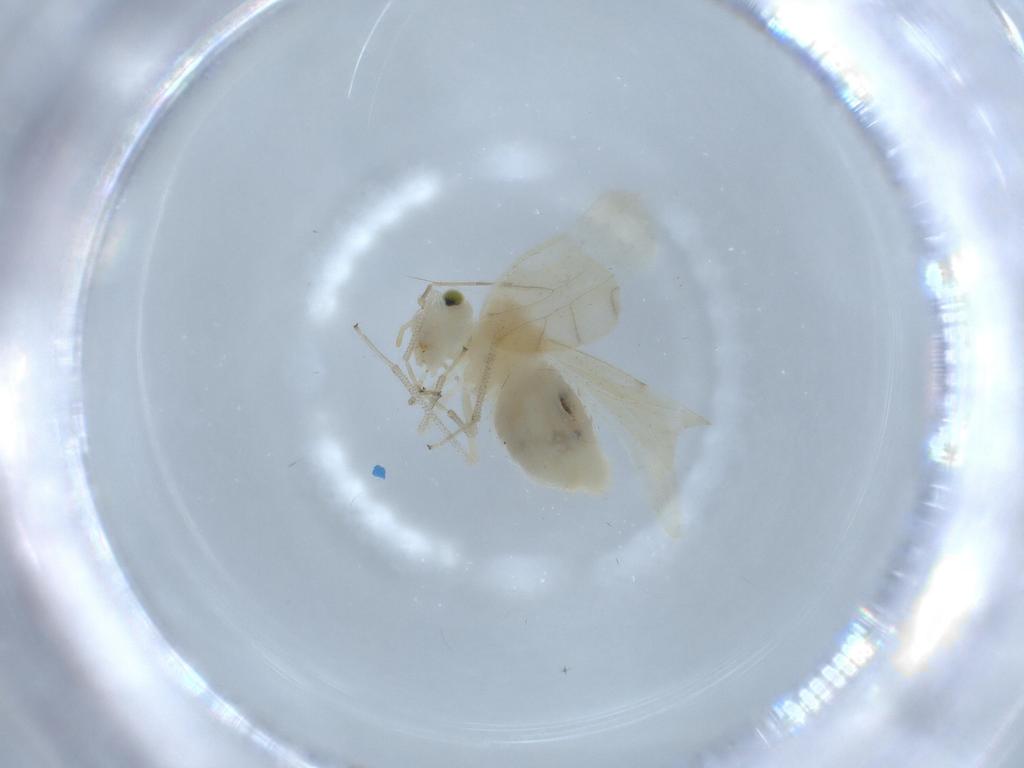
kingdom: Animalia
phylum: Arthropoda
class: Insecta
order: Psocodea
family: Caeciliusidae
